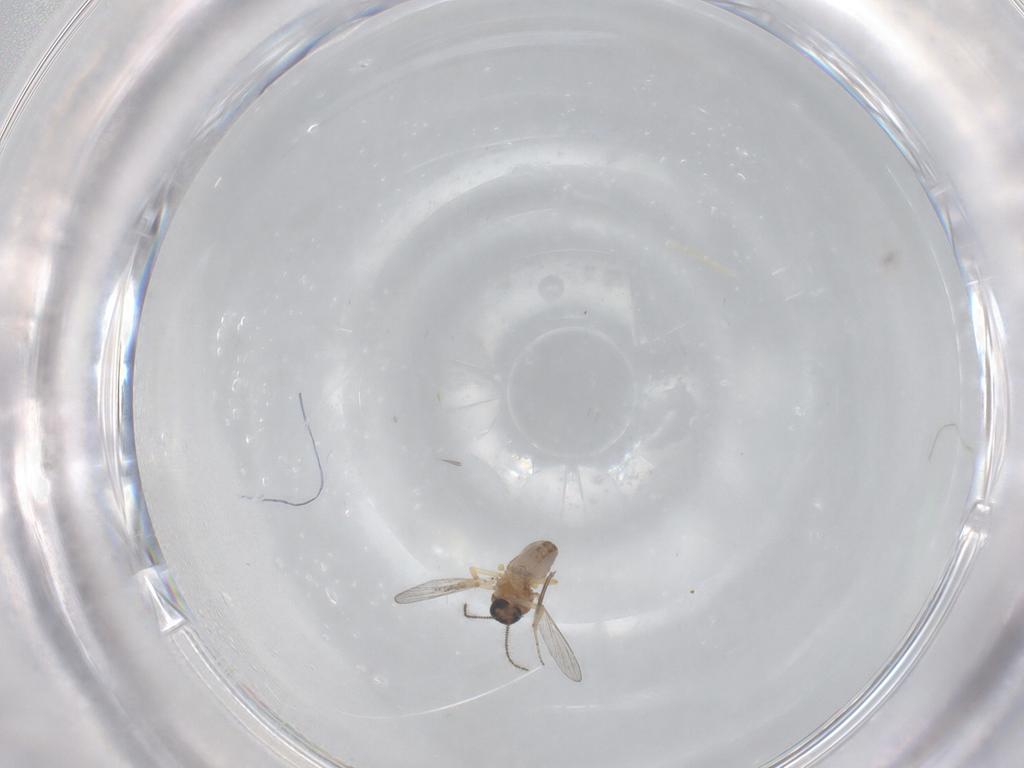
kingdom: Animalia
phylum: Arthropoda
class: Insecta
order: Diptera
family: Ceratopogonidae
